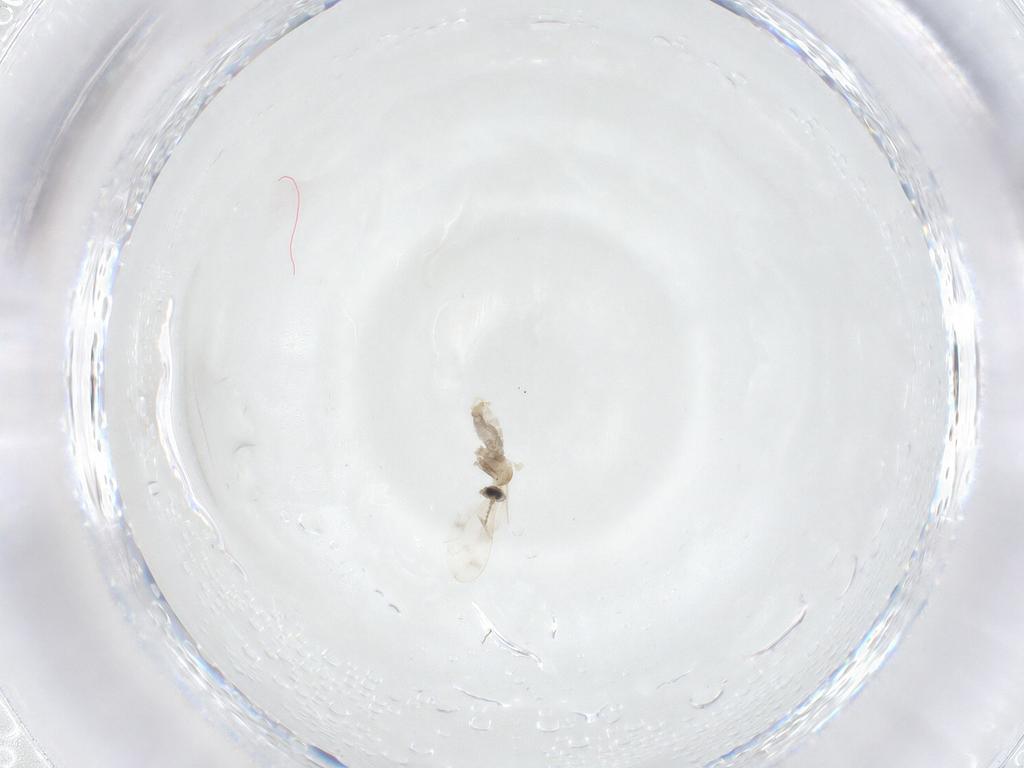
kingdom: Animalia
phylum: Arthropoda
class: Insecta
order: Diptera
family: Cecidomyiidae
